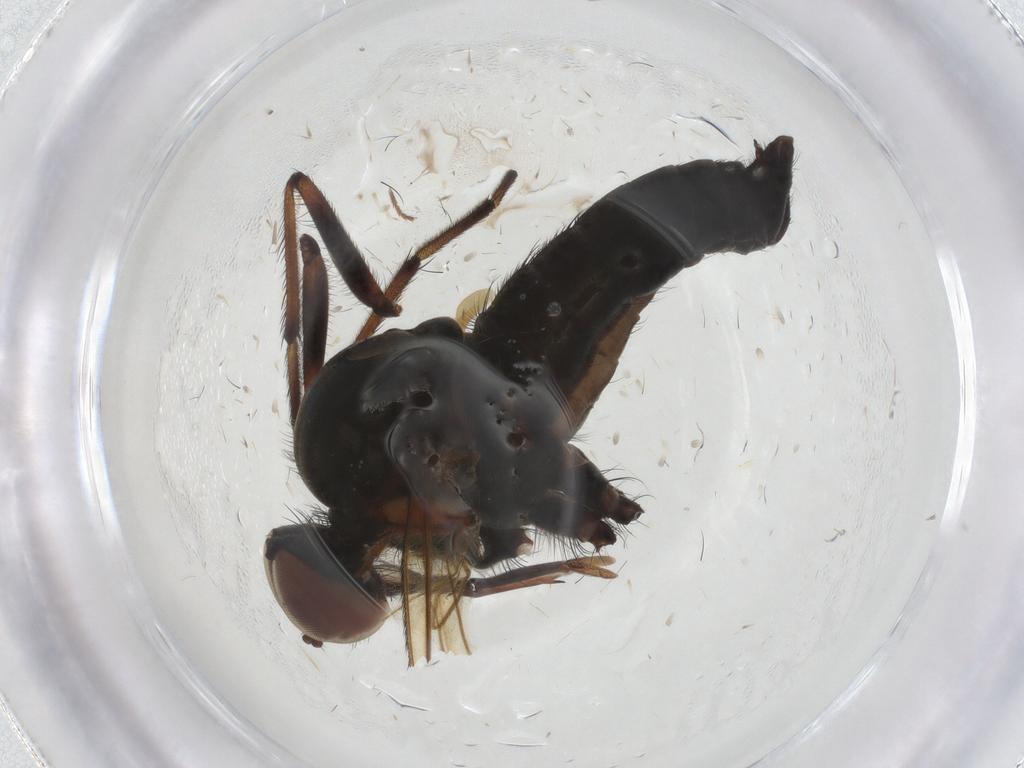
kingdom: Animalia
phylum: Arthropoda
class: Insecta
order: Diptera
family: Empididae
